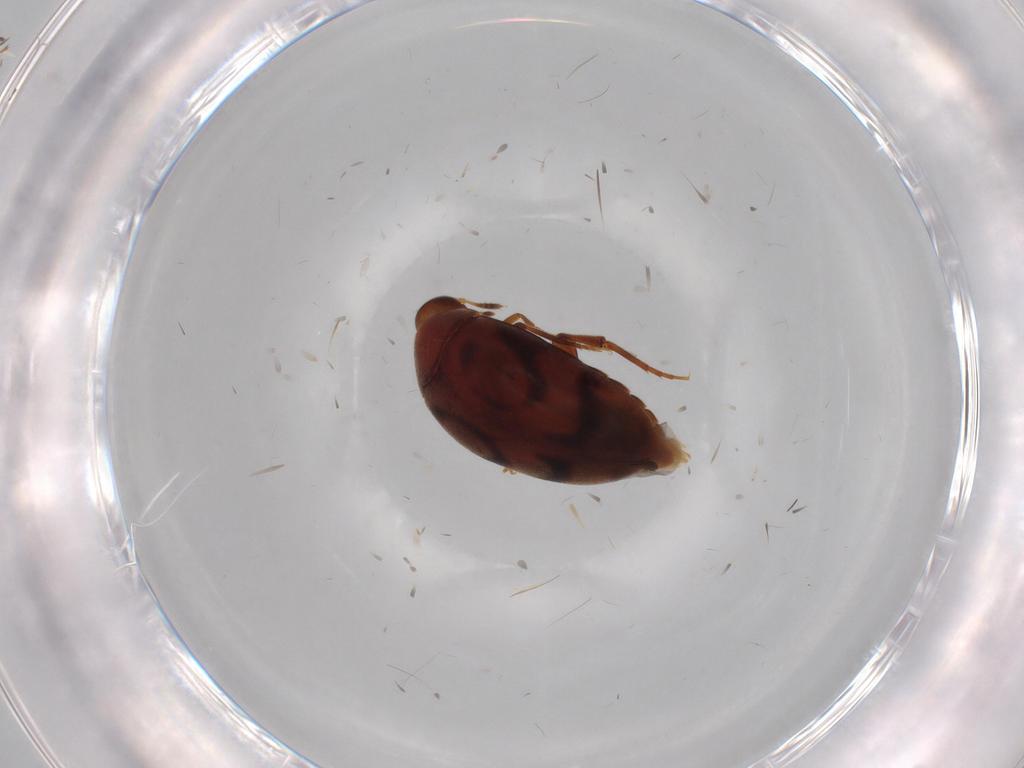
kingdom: Animalia
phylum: Arthropoda
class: Insecta
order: Coleoptera
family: Melandryidae
